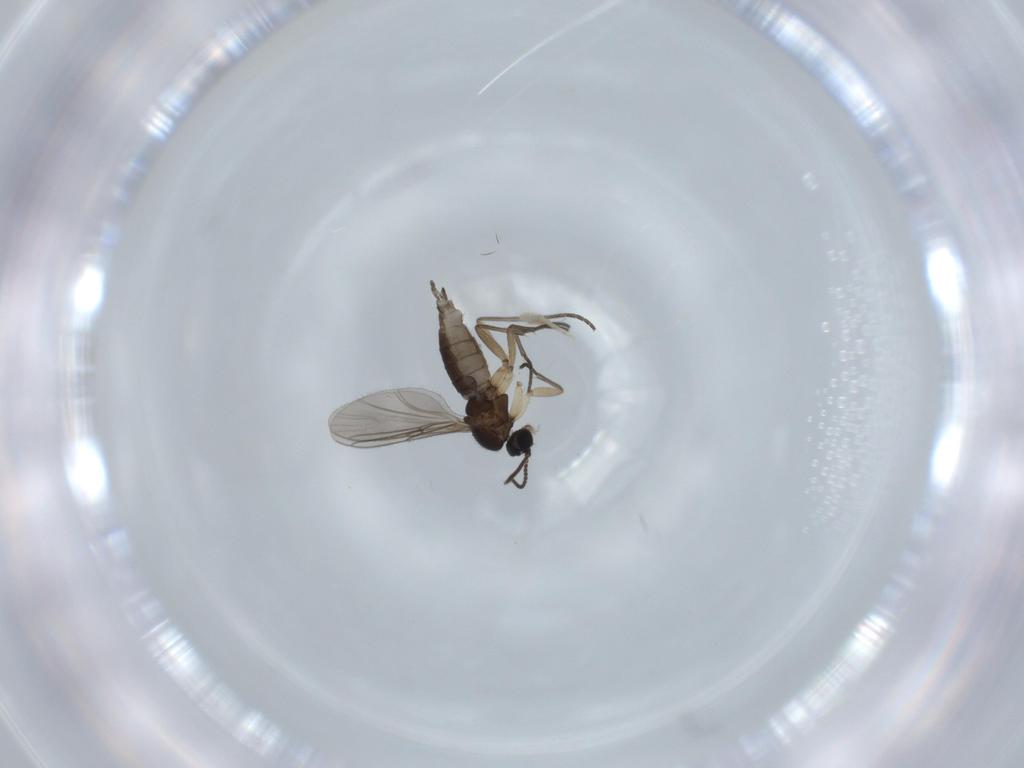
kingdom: Animalia
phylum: Arthropoda
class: Insecta
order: Diptera
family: Sciaridae
